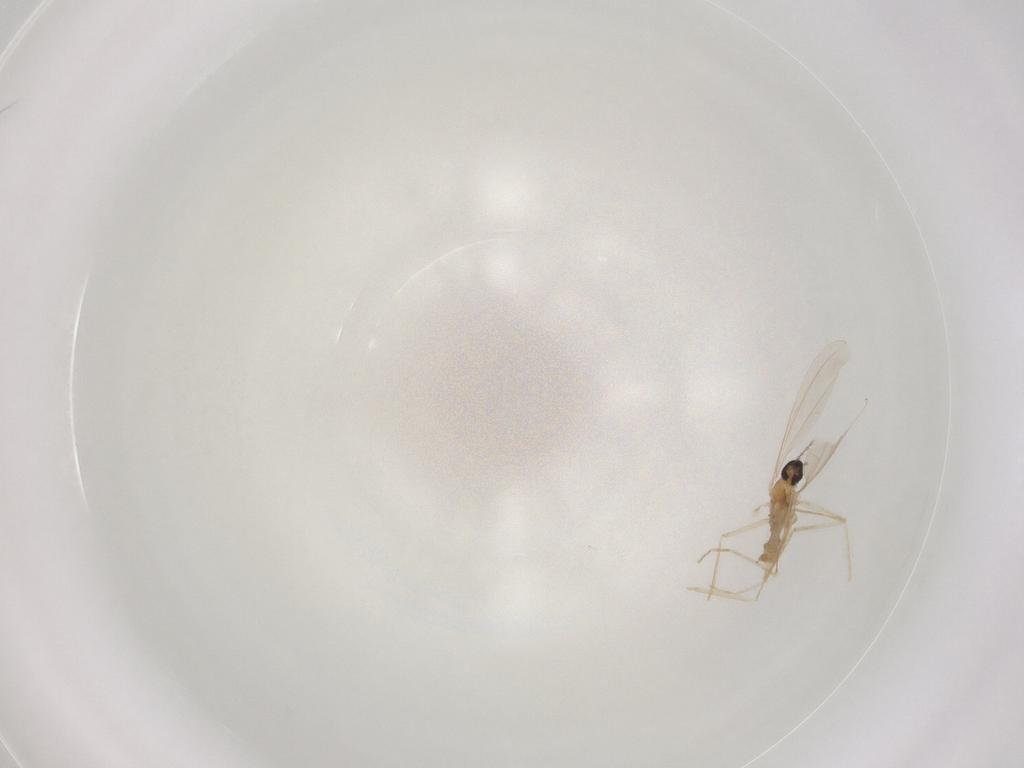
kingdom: Animalia
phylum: Arthropoda
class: Insecta
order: Diptera
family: Cecidomyiidae
